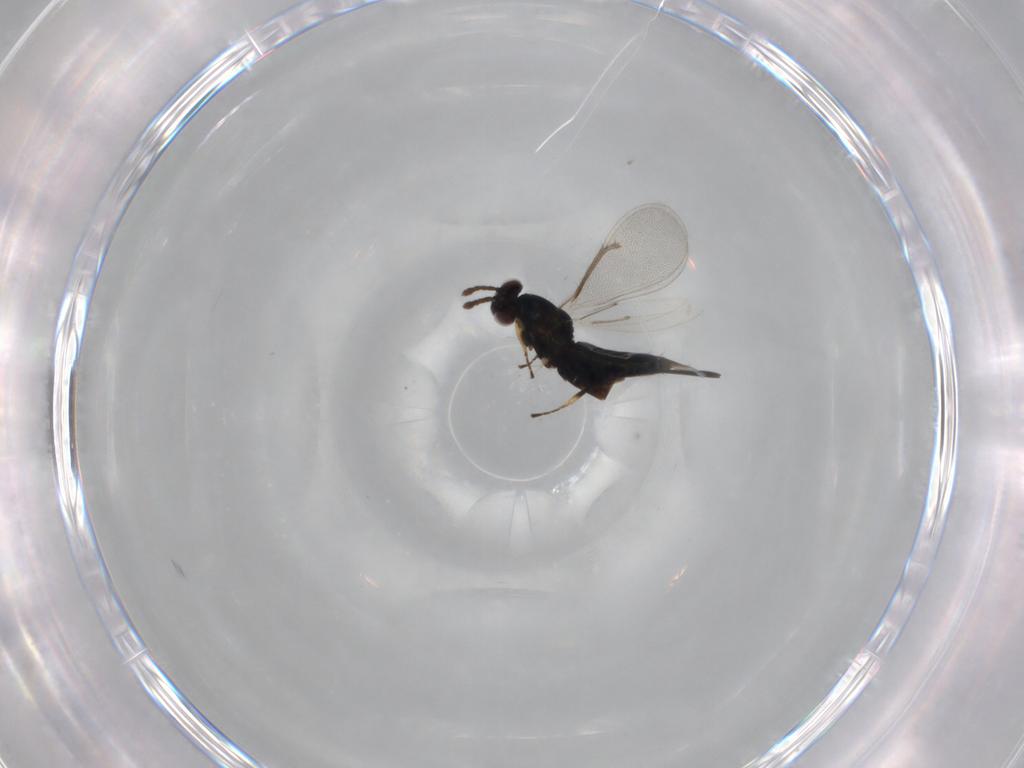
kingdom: Animalia
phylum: Arthropoda
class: Insecta
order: Hymenoptera
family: Eulophidae
